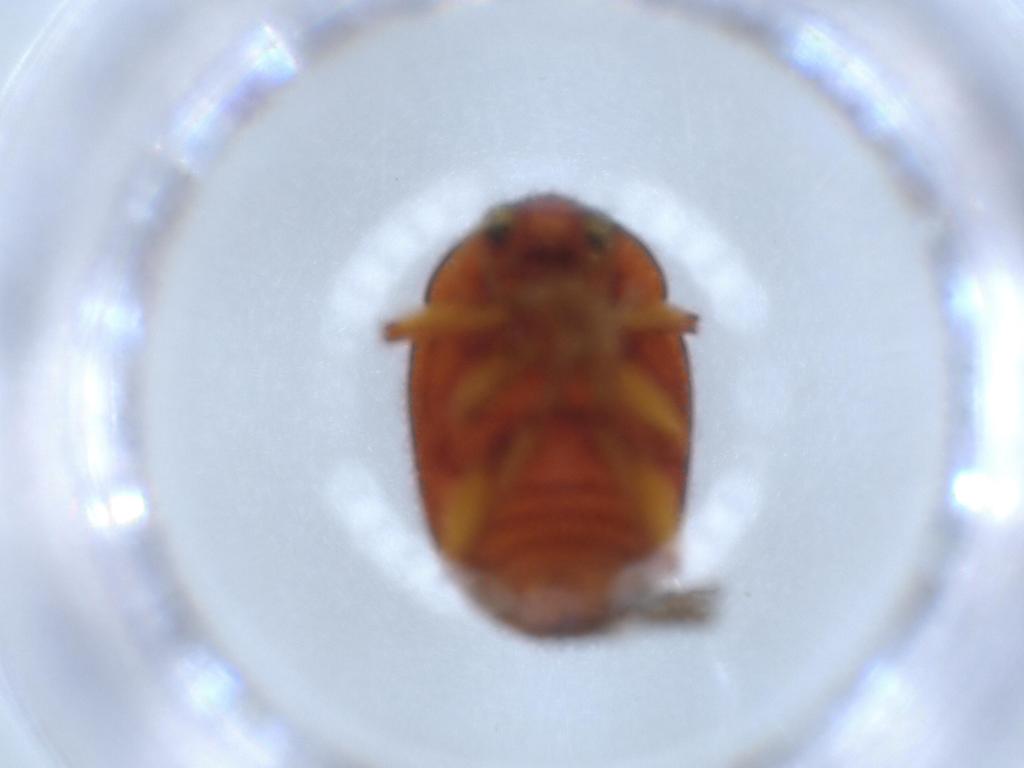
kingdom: Animalia
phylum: Arthropoda
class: Insecta
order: Coleoptera
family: Chrysomelidae
